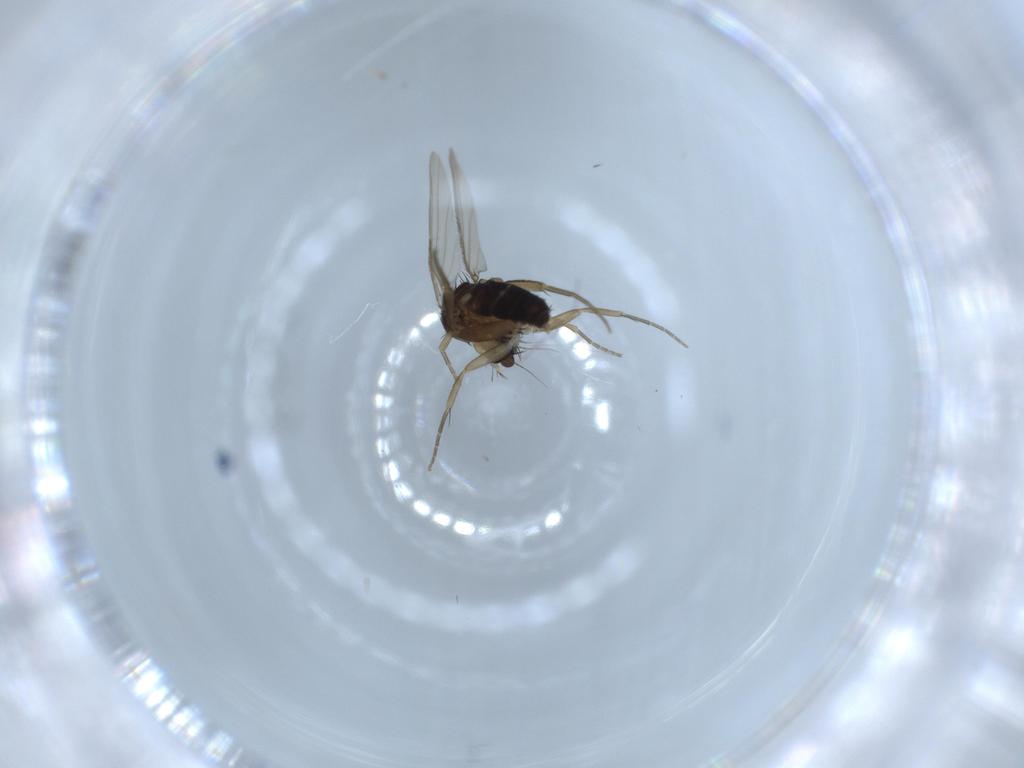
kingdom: Animalia
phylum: Arthropoda
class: Insecta
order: Diptera
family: Phoridae
